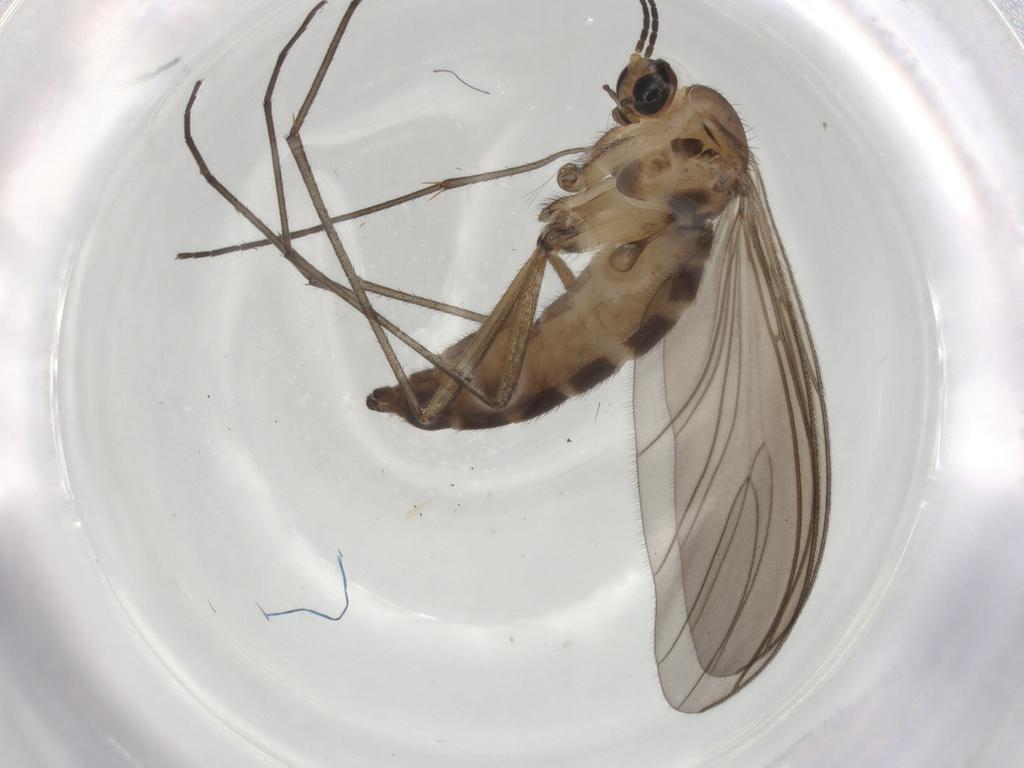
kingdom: Animalia
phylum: Arthropoda
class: Insecta
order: Diptera
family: Sciaridae
